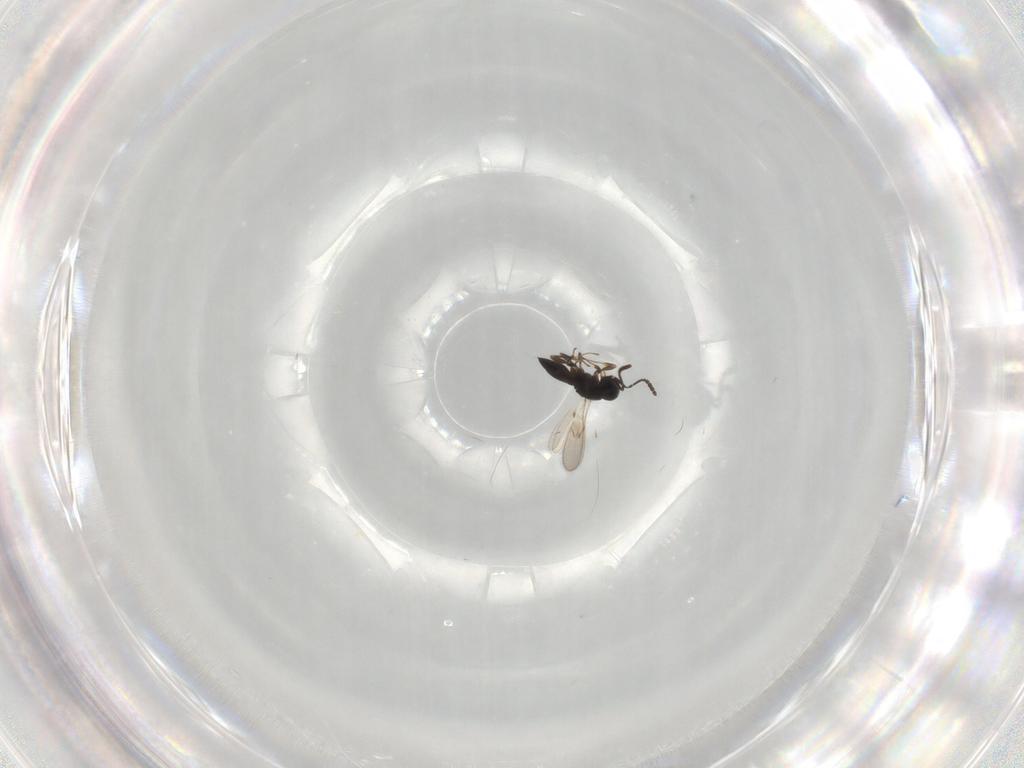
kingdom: Animalia
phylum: Arthropoda
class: Insecta
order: Hymenoptera
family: Scelionidae
